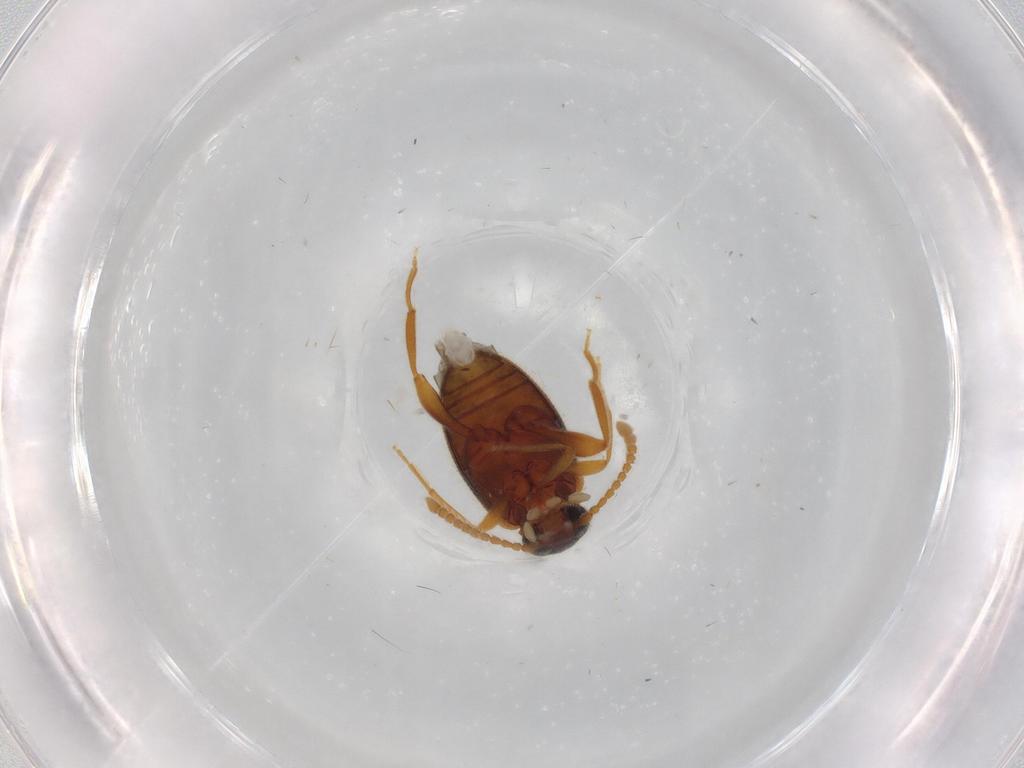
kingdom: Animalia
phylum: Arthropoda
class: Insecta
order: Coleoptera
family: Aderidae
